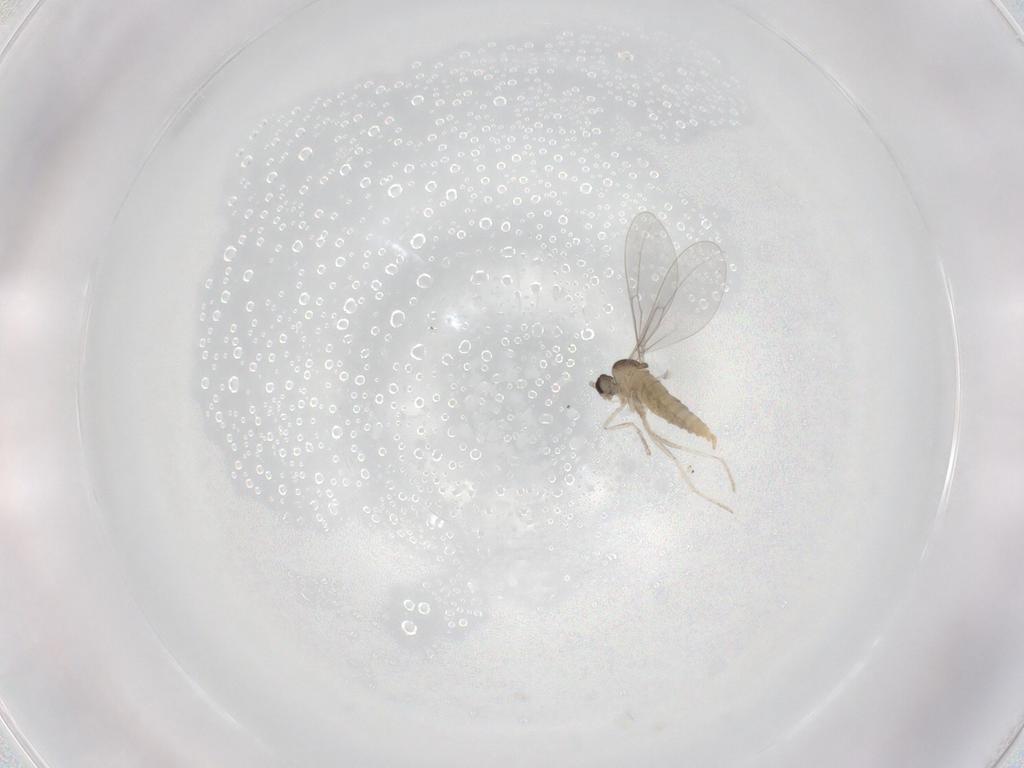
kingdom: Animalia
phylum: Arthropoda
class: Insecta
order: Diptera
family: Cecidomyiidae
